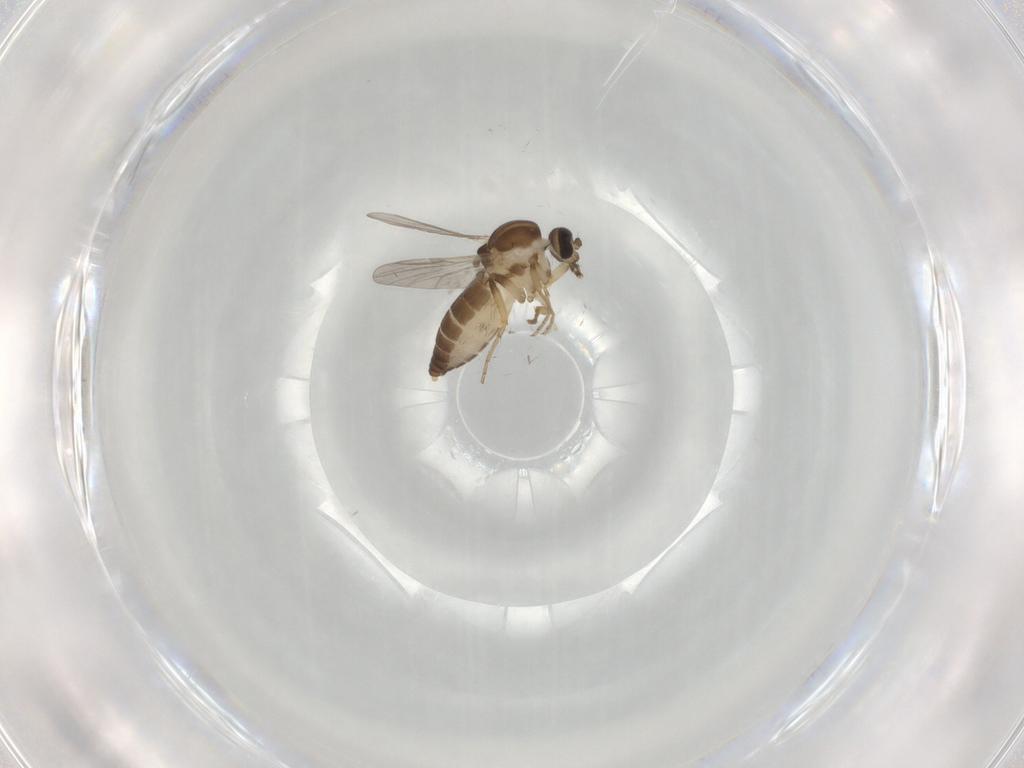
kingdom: Animalia
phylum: Arthropoda
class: Insecta
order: Diptera
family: Ceratopogonidae
